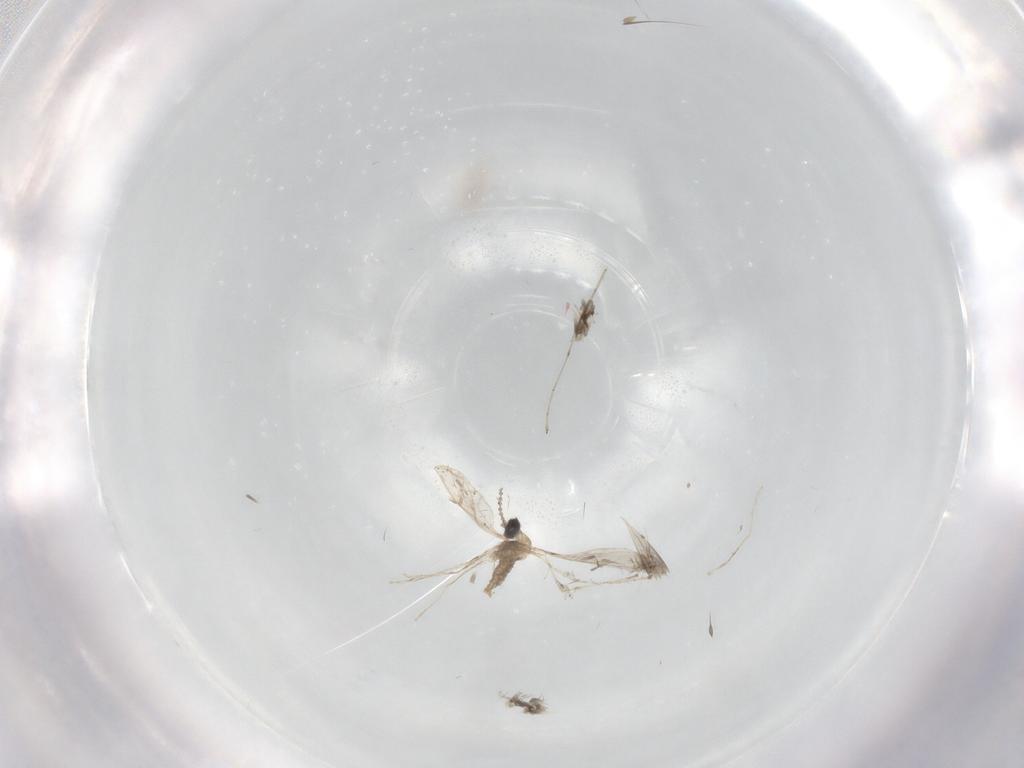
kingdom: Animalia
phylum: Arthropoda
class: Insecta
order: Diptera
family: Cecidomyiidae
